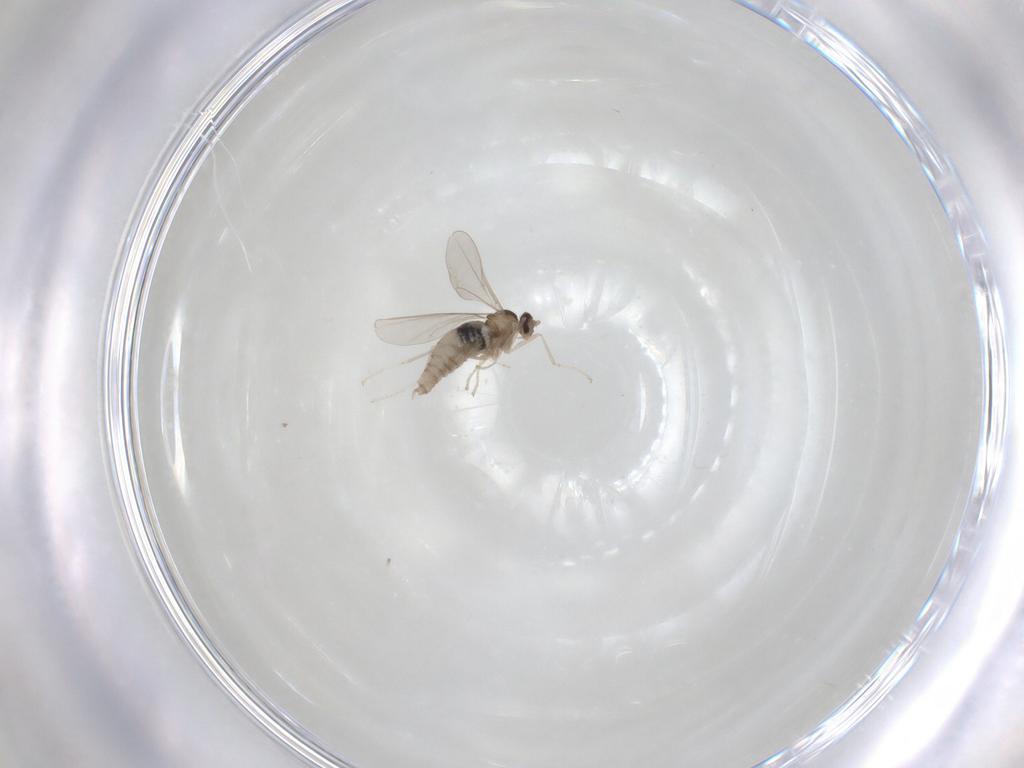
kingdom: Animalia
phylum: Arthropoda
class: Insecta
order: Diptera
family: Cecidomyiidae
